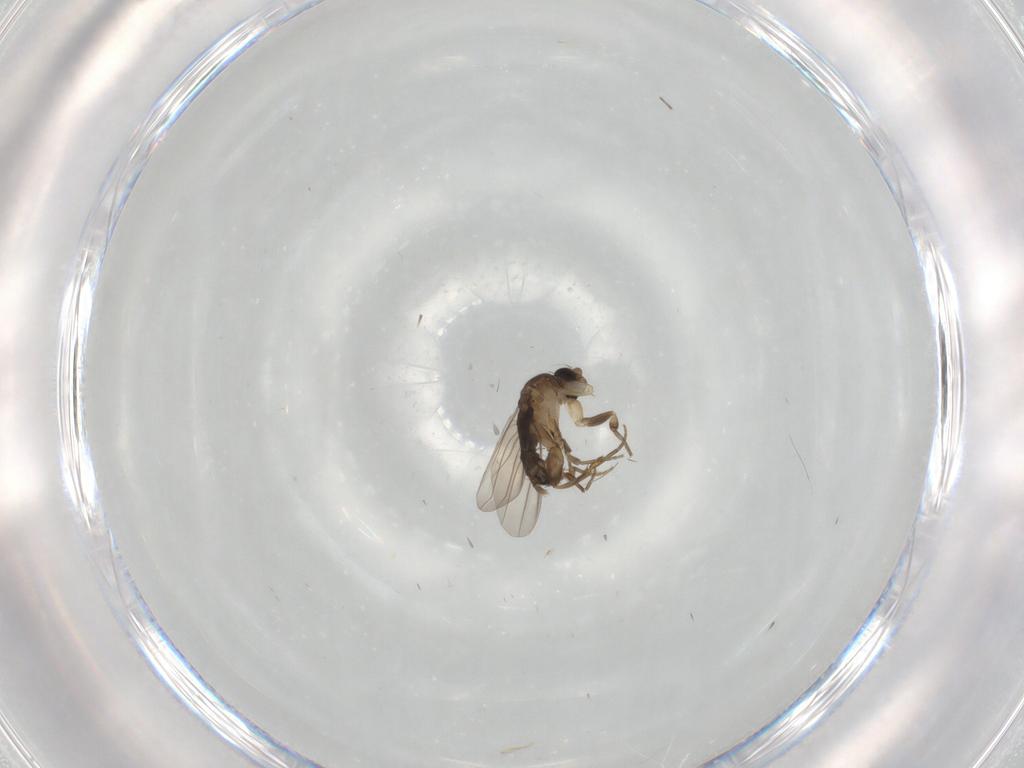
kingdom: Animalia
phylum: Arthropoda
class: Insecta
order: Diptera
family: Phoridae
